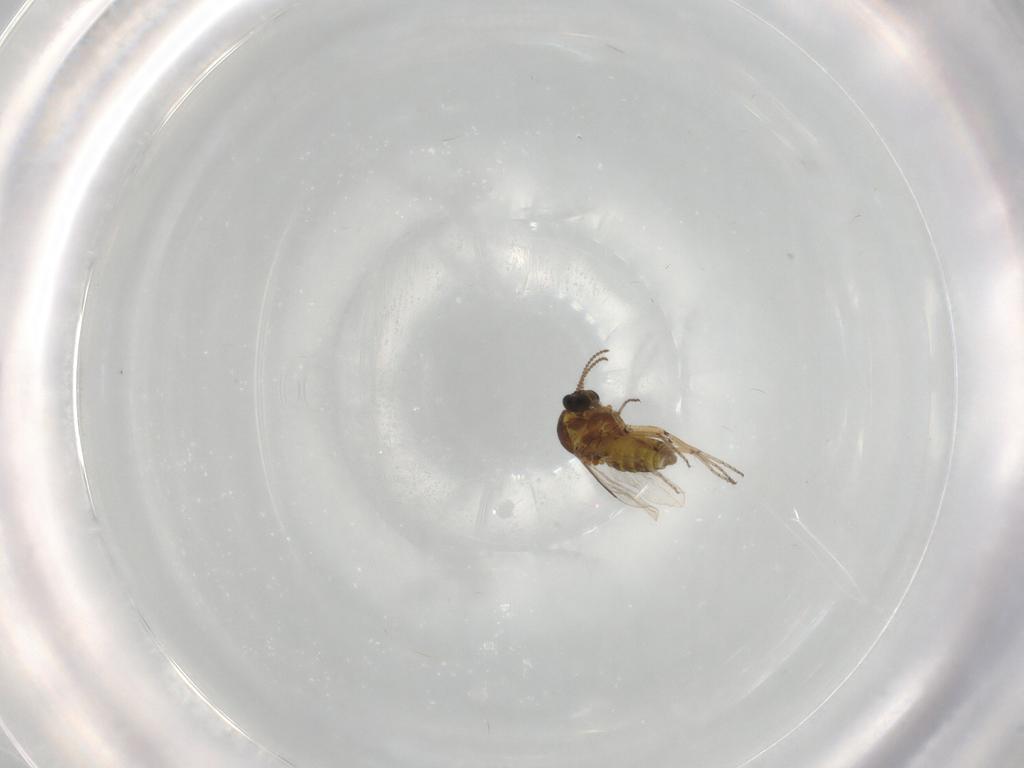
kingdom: Animalia
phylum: Arthropoda
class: Insecta
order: Diptera
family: Ceratopogonidae
